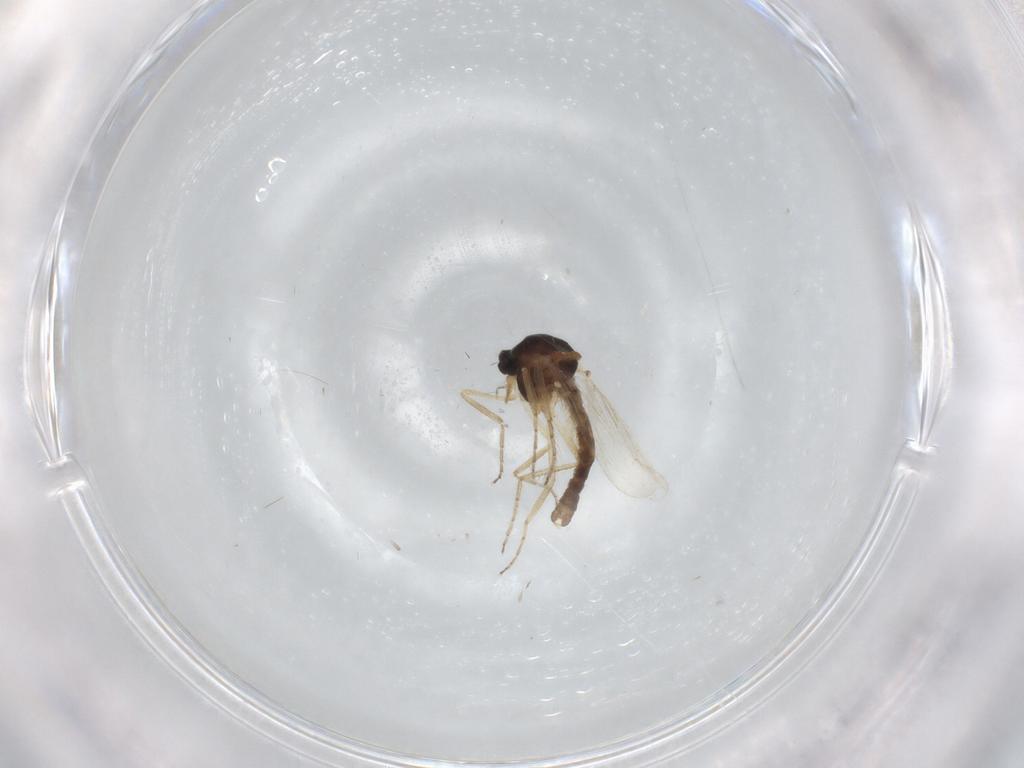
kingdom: Animalia
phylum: Arthropoda
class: Insecta
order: Diptera
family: Ceratopogonidae
